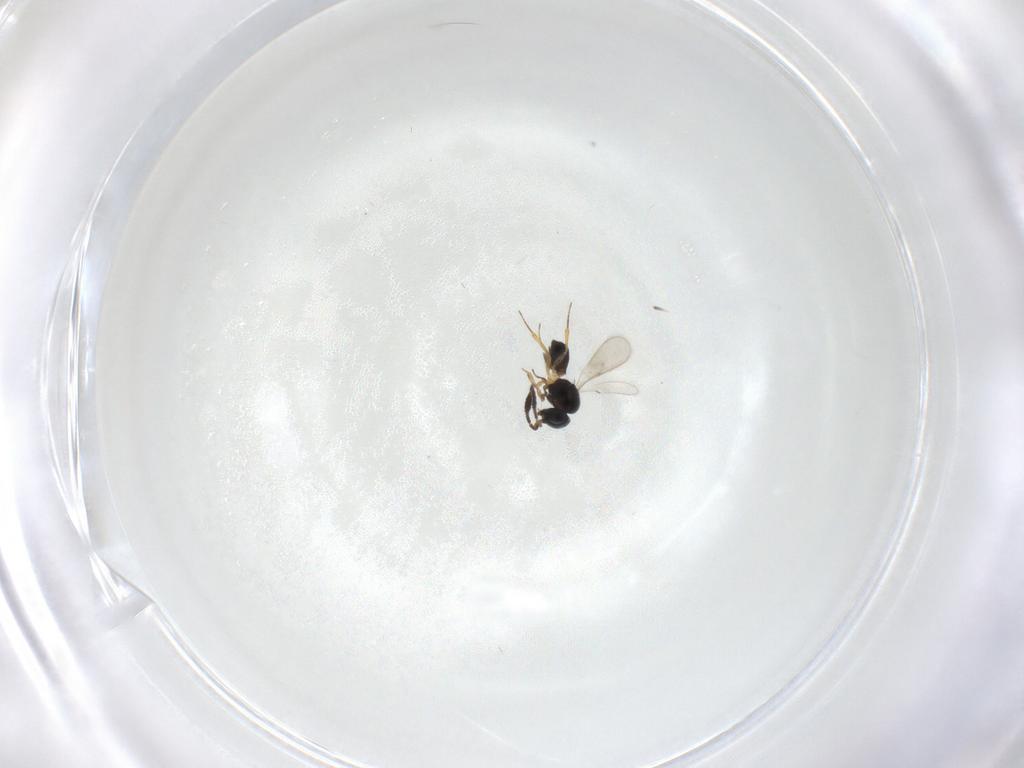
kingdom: Animalia
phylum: Arthropoda
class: Insecta
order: Hymenoptera
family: Scelionidae
